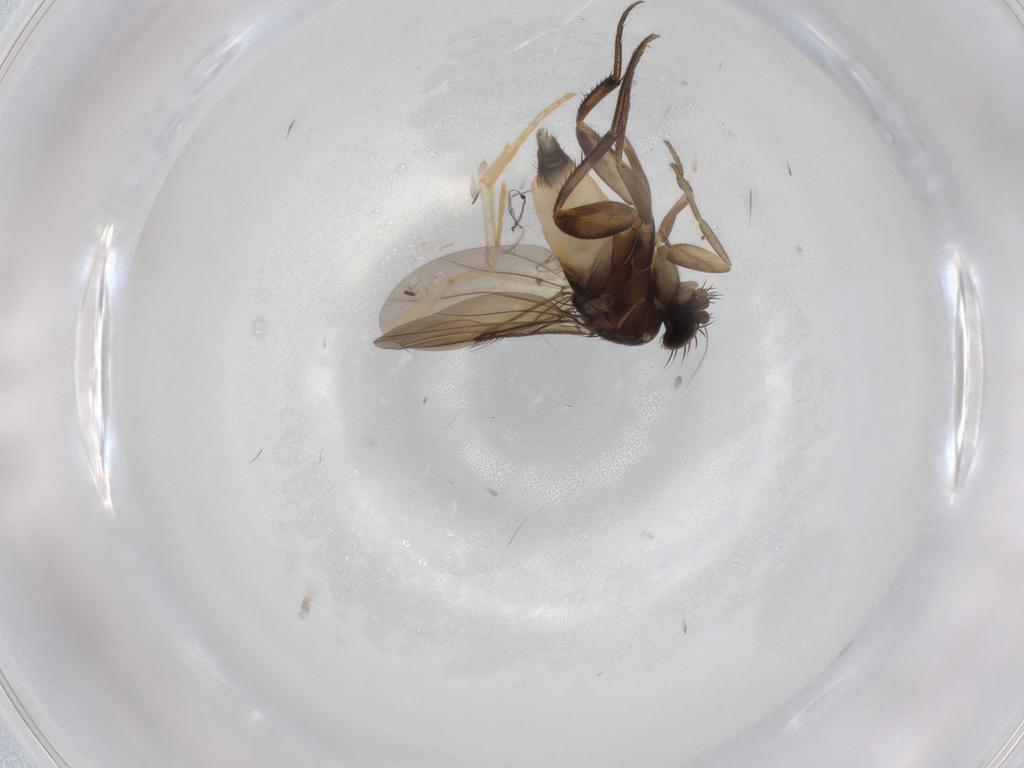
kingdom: Animalia
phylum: Arthropoda
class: Insecta
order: Diptera
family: Phoridae
